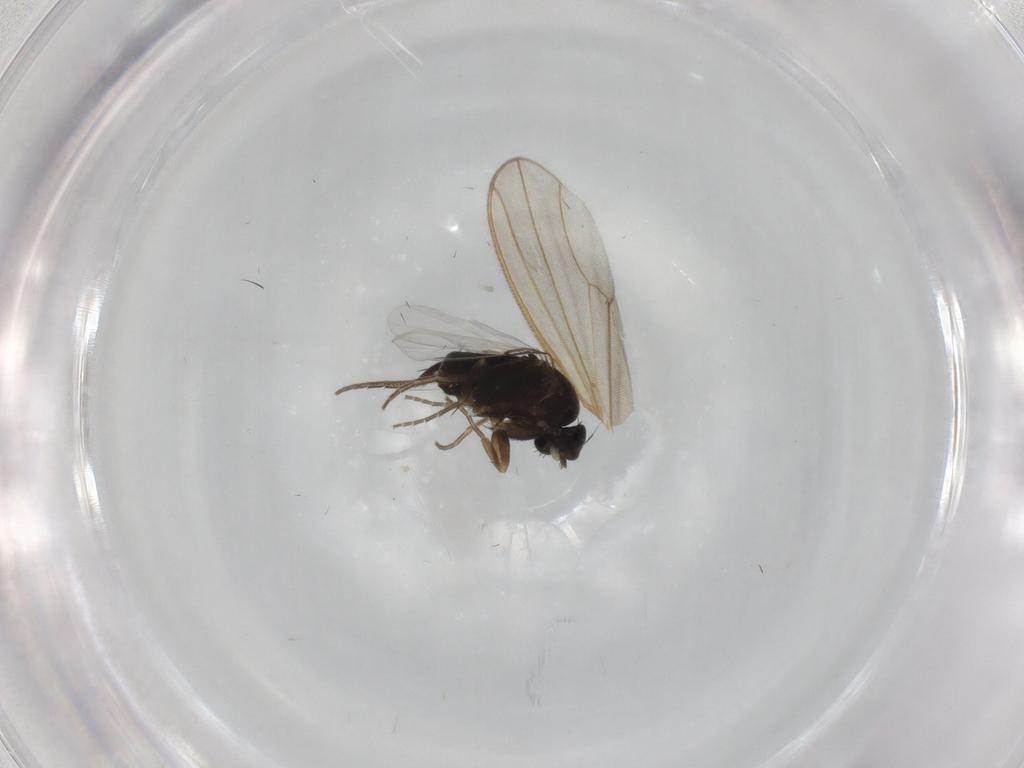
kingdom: Animalia
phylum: Arthropoda
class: Insecta
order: Diptera
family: Phoridae
